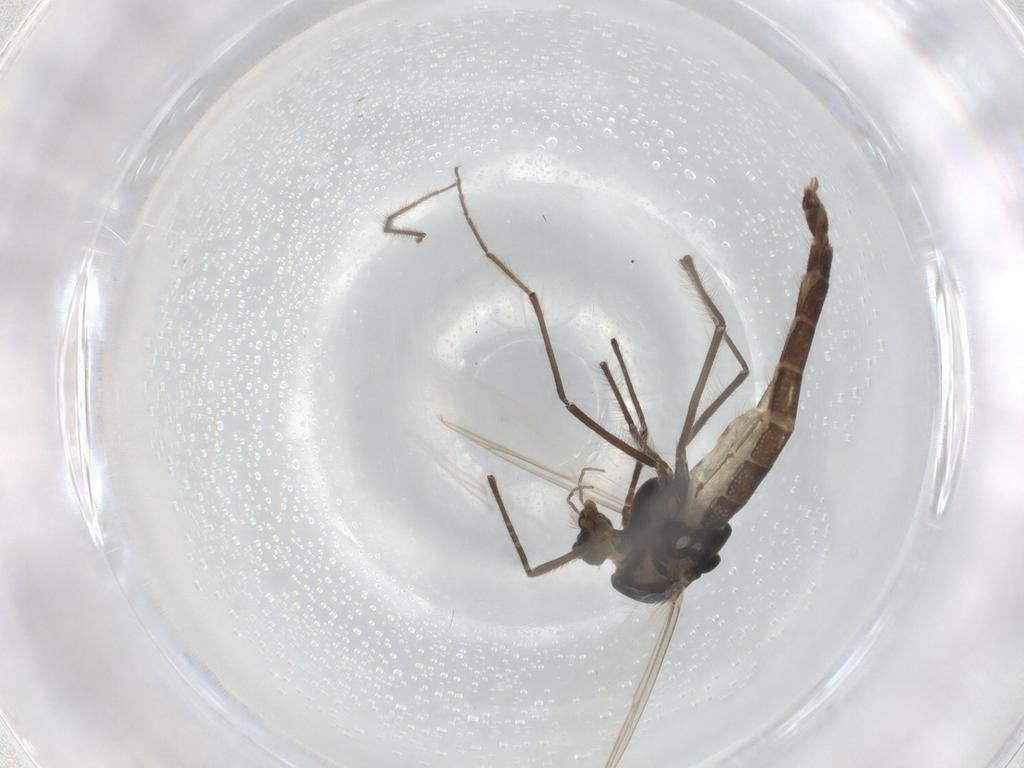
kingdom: Animalia
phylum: Arthropoda
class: Insecta
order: Diptera
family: Chironomidae
